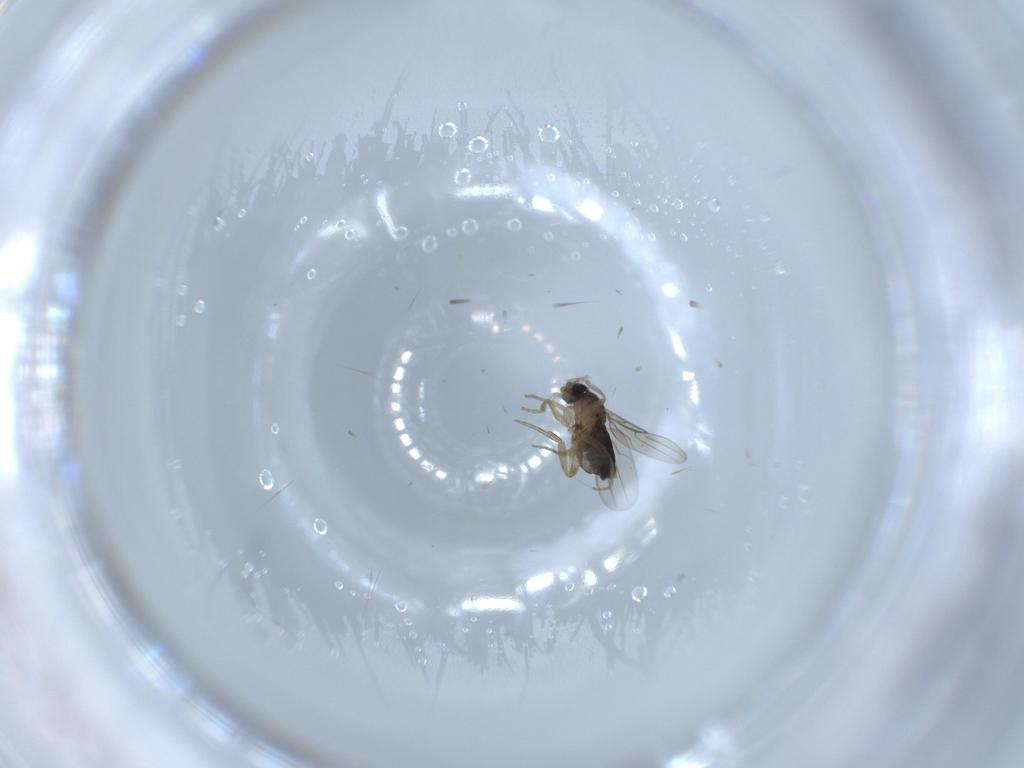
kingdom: Animalia
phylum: Arthropoda
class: Insecta
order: Diptera
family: Phoridae
